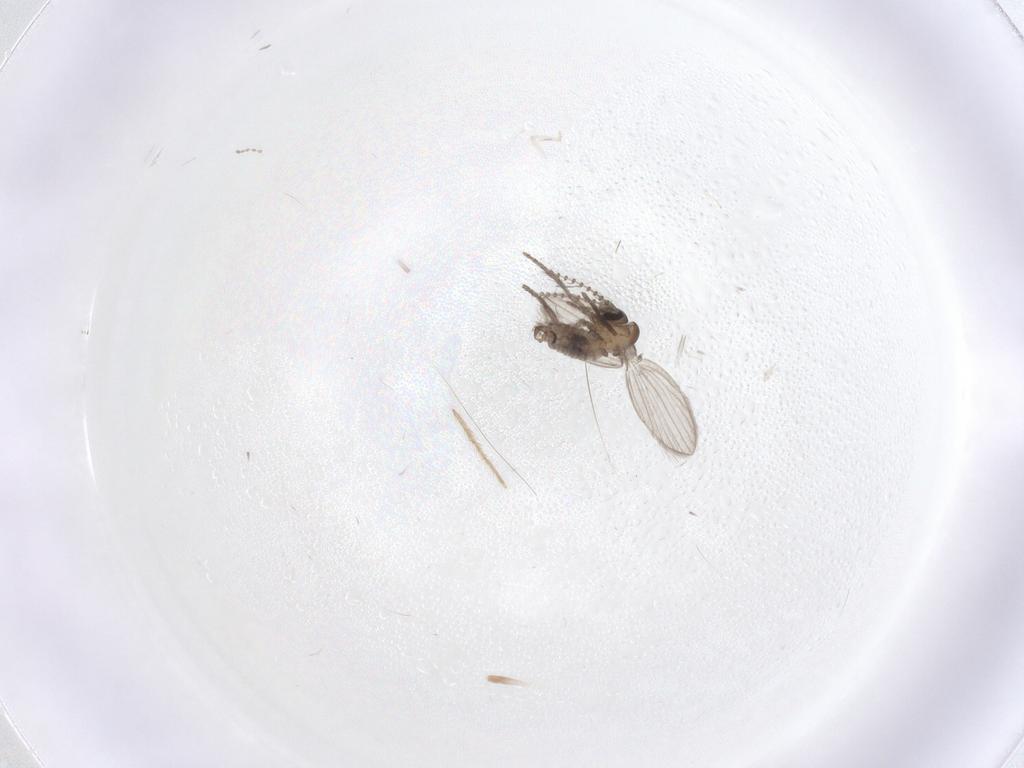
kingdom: Animalia
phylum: Arthropoda
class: Insecta
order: Diptera
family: Psychodidae
